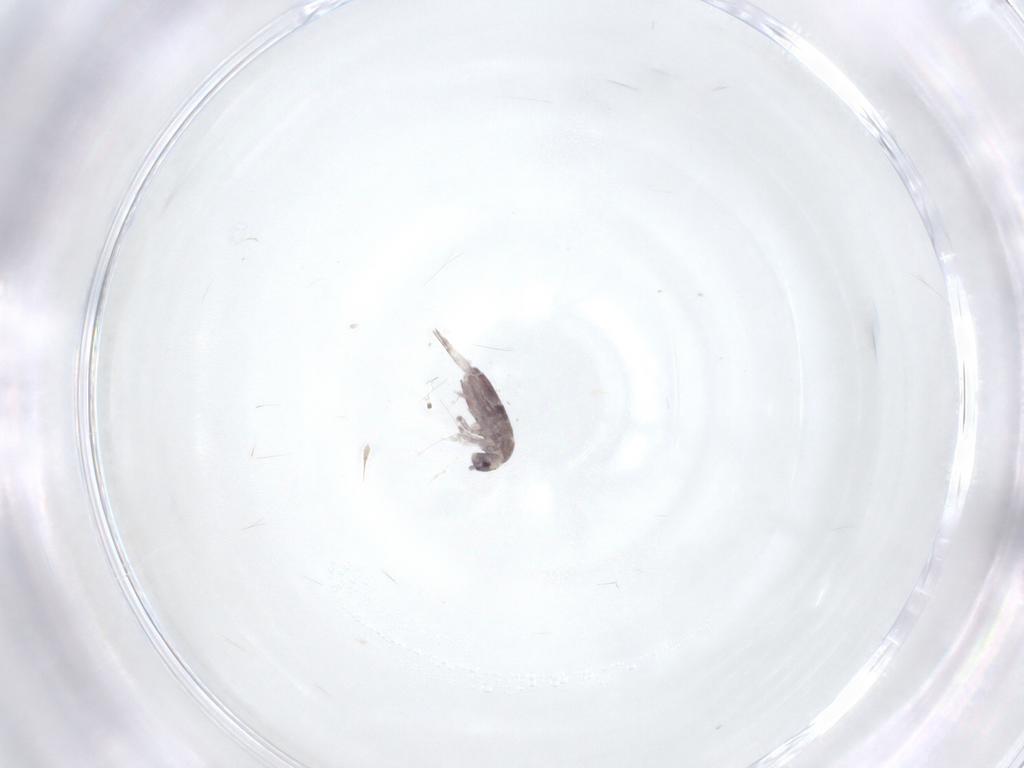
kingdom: Animalia
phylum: Arthropoda
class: Collembola
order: Entomobryomorpha
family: Entomobryidae
